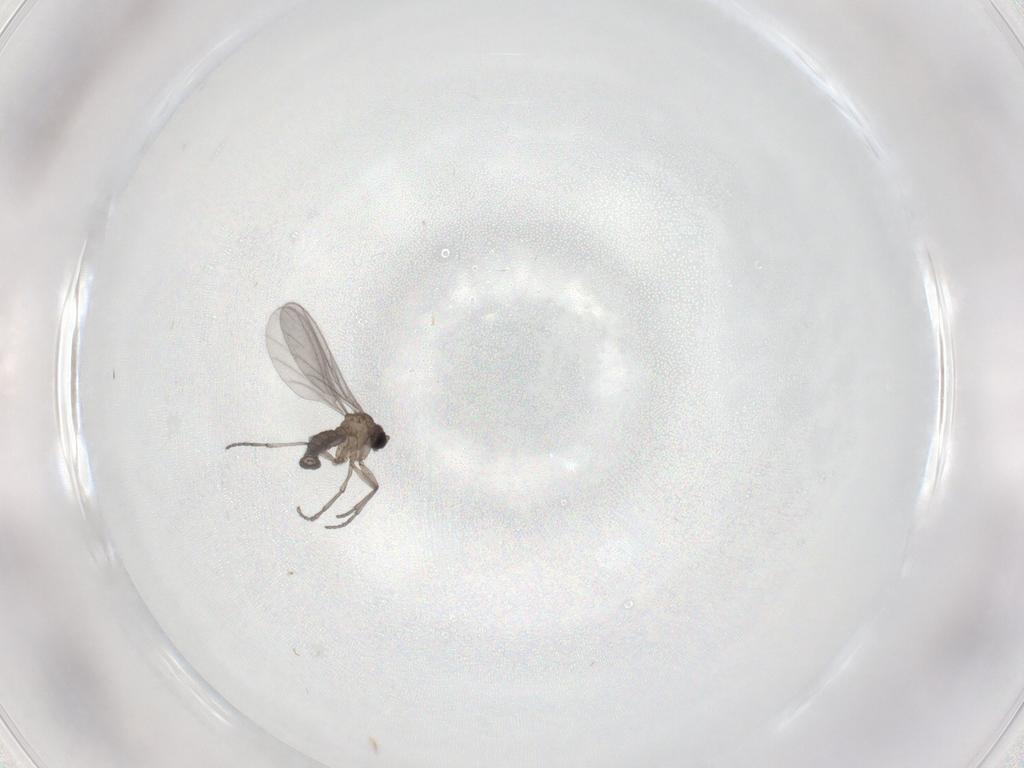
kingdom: Animalia
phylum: Arthropoda
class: Insecta
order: Diptera
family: Sciaridae
